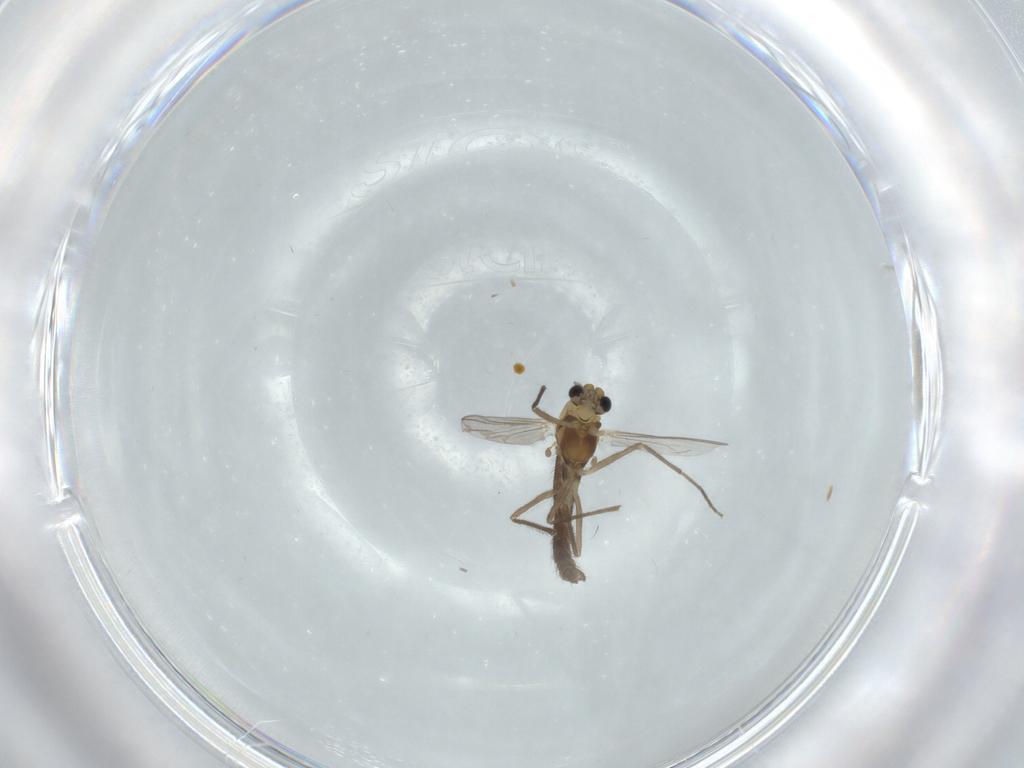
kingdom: Animalia
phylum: Arthropoda
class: Insecta
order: Diptera
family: Chironomidae
